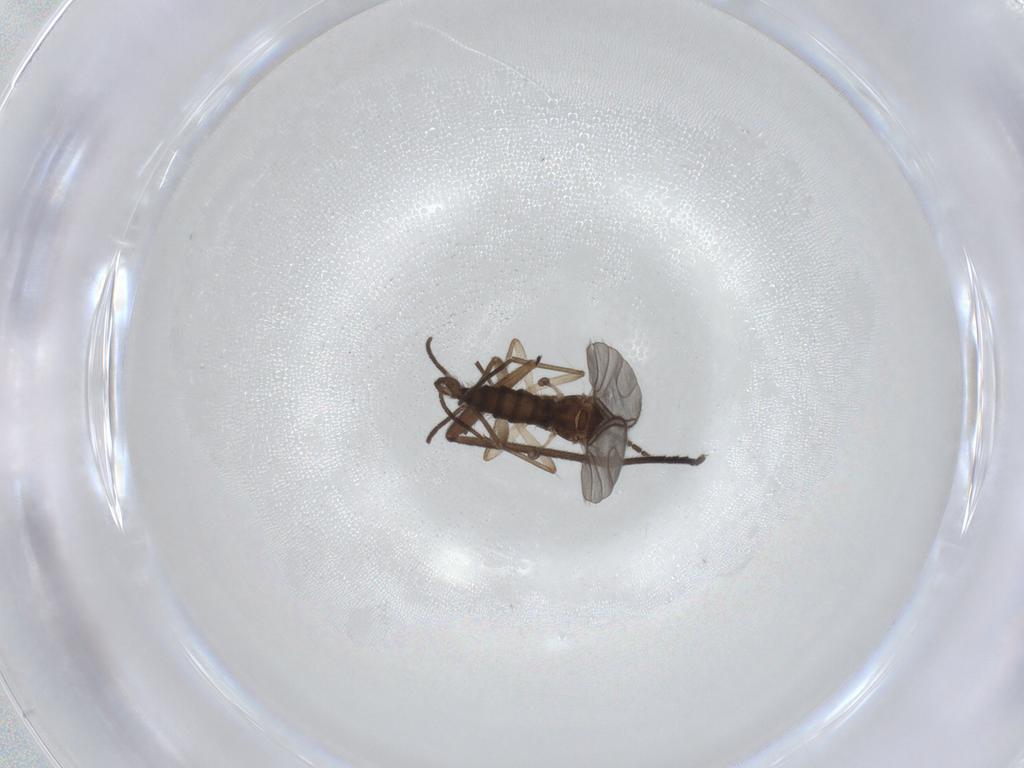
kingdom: Animalia
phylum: Arthropoda
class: Insecta
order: Diptera
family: Sciaridae
